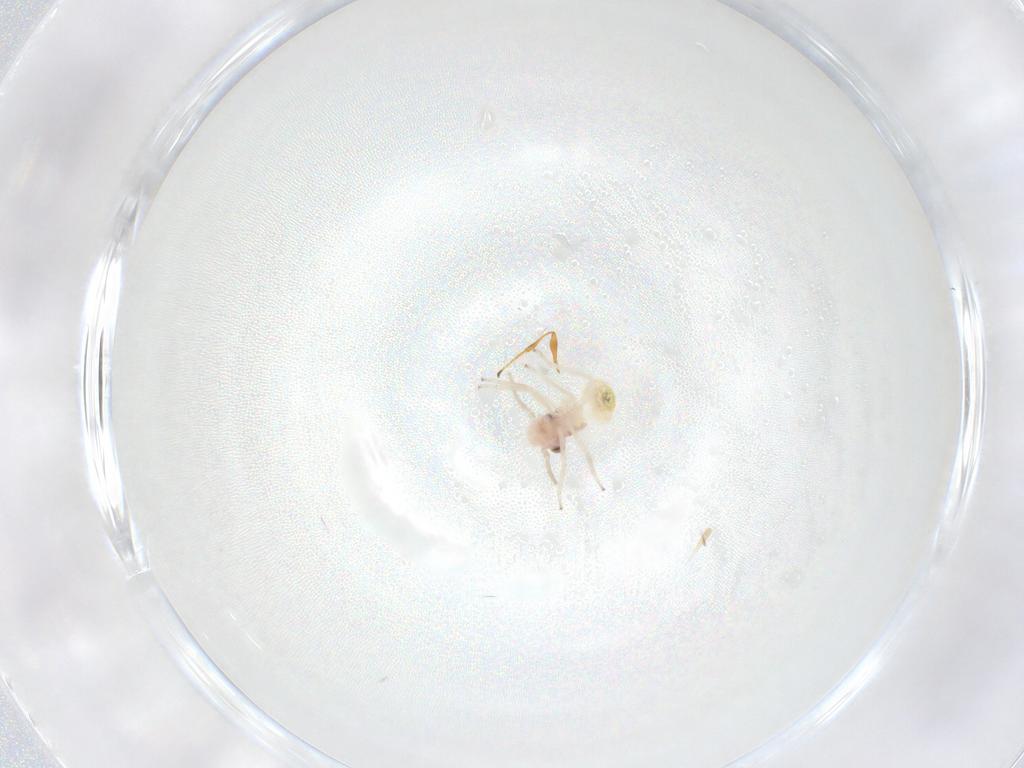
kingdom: Animalia
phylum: Arthropoda
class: Insecta
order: Psocodea
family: Caeciliusidae
